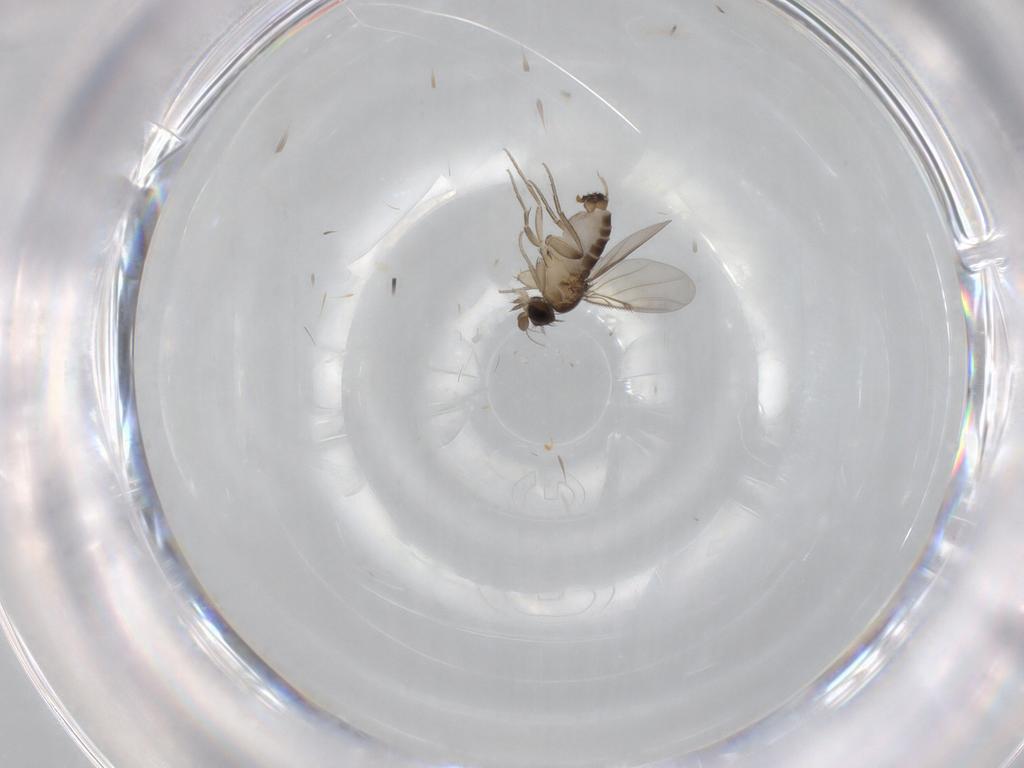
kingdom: Animalia
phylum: Arthropoda
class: Insecta
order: Diptera
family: Phoridae
